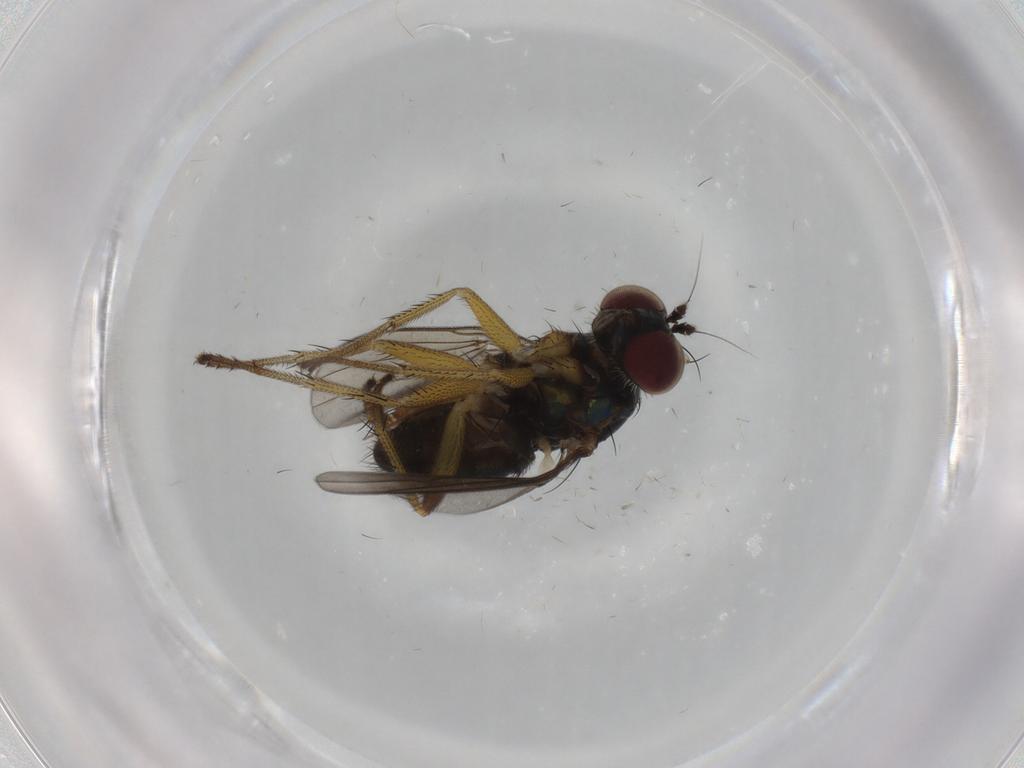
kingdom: Animalia
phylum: Arthropoda
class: Insecta
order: Diptera
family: Dolichopodidae
